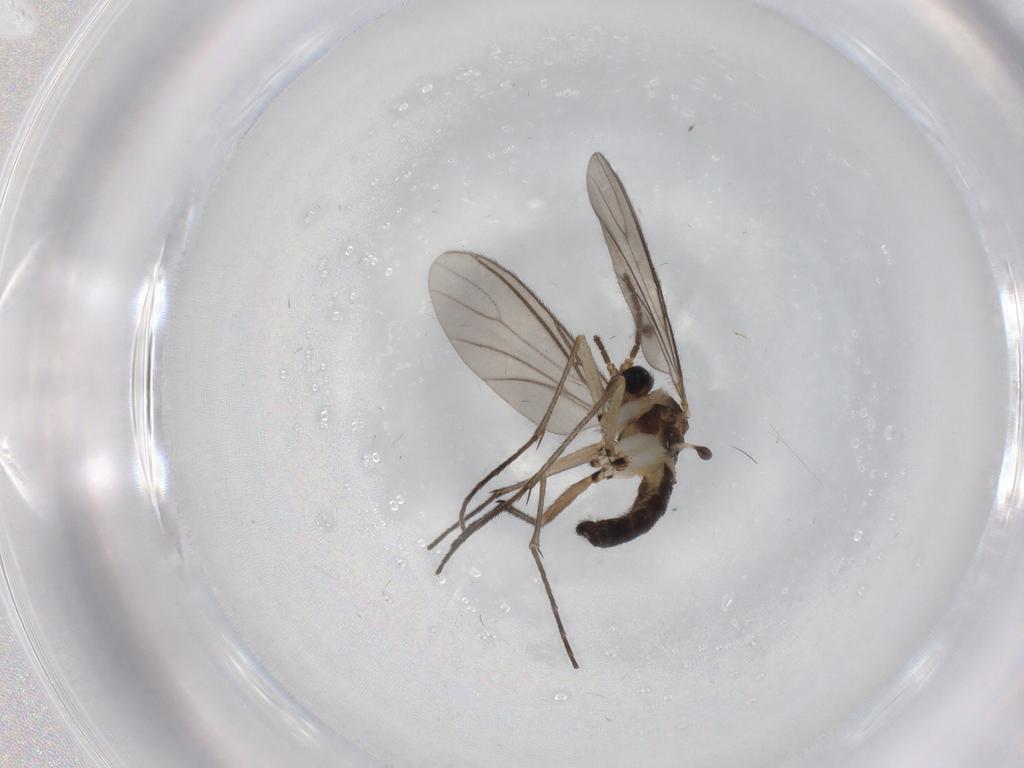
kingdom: Animalia
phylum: Arthropoda
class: Insecta
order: Diptera
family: Sciaridae
